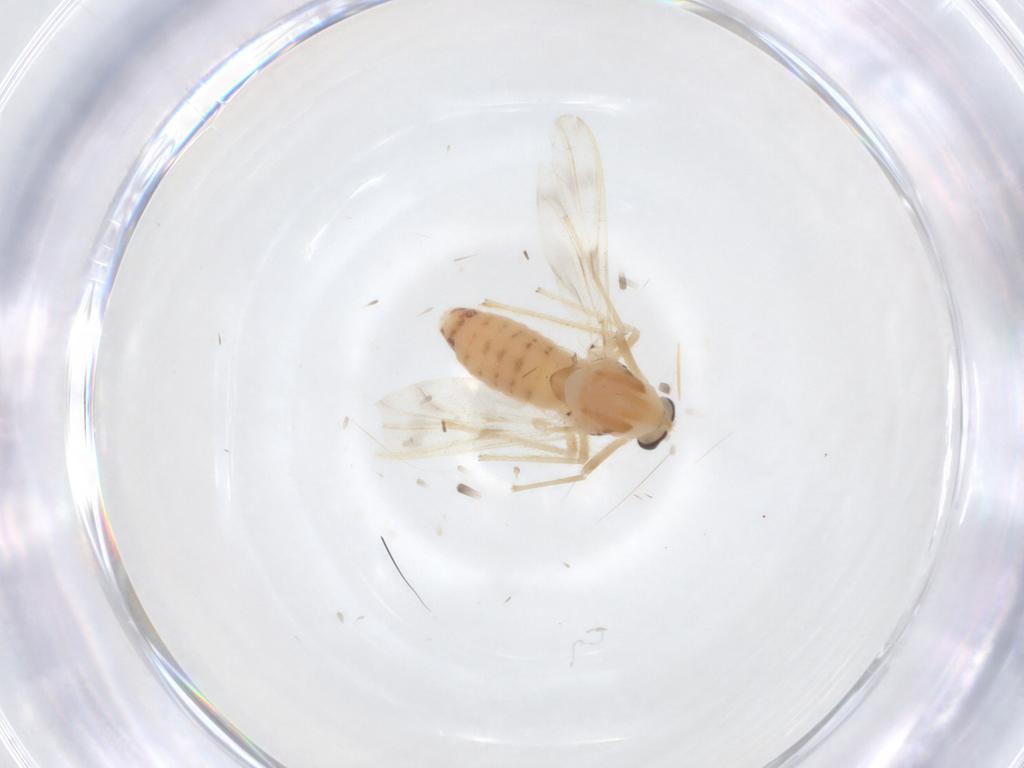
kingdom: Animalia
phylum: Arthropoda
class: Insecta
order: Diptera
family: Chironomidae
